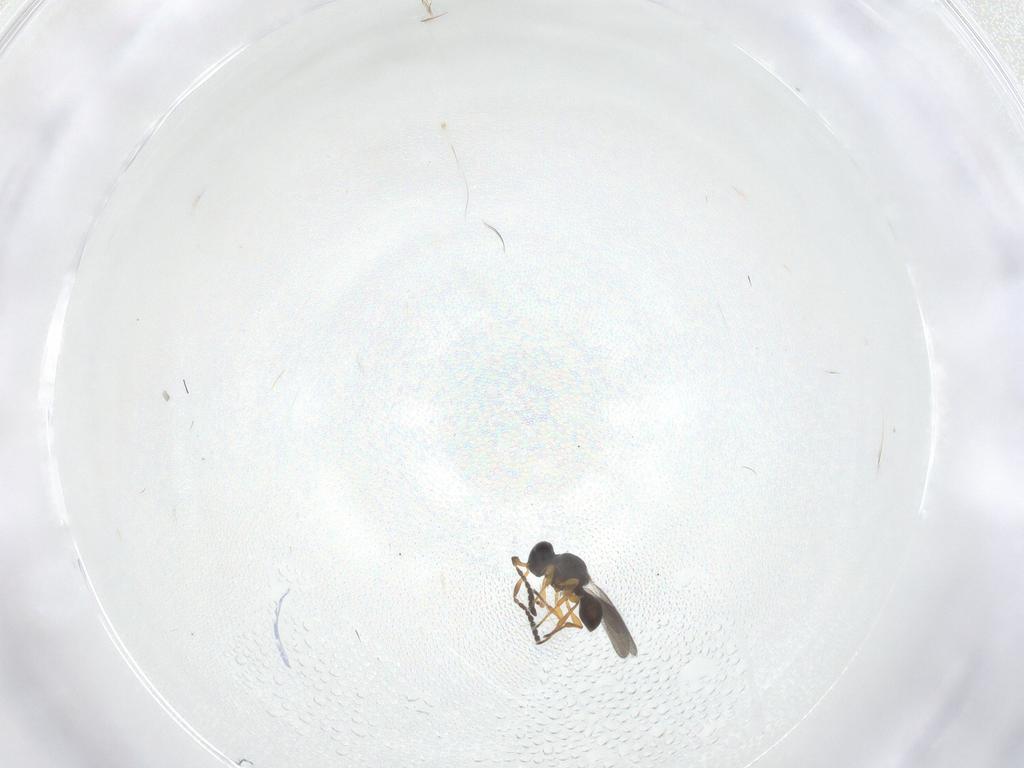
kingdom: Animalia
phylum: Arthropoda
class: Insecta
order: Hymenoptera
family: Platygastridae
